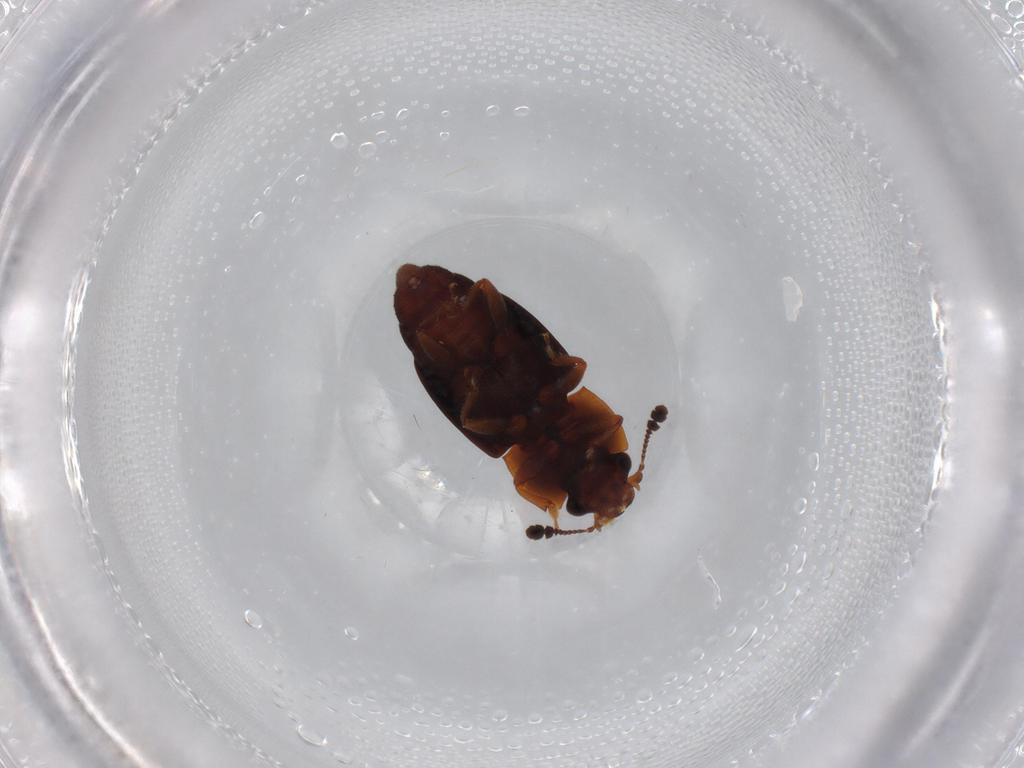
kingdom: Animalia
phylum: Arthropoda
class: Insecta
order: Coleoptera
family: Nitidulidae
